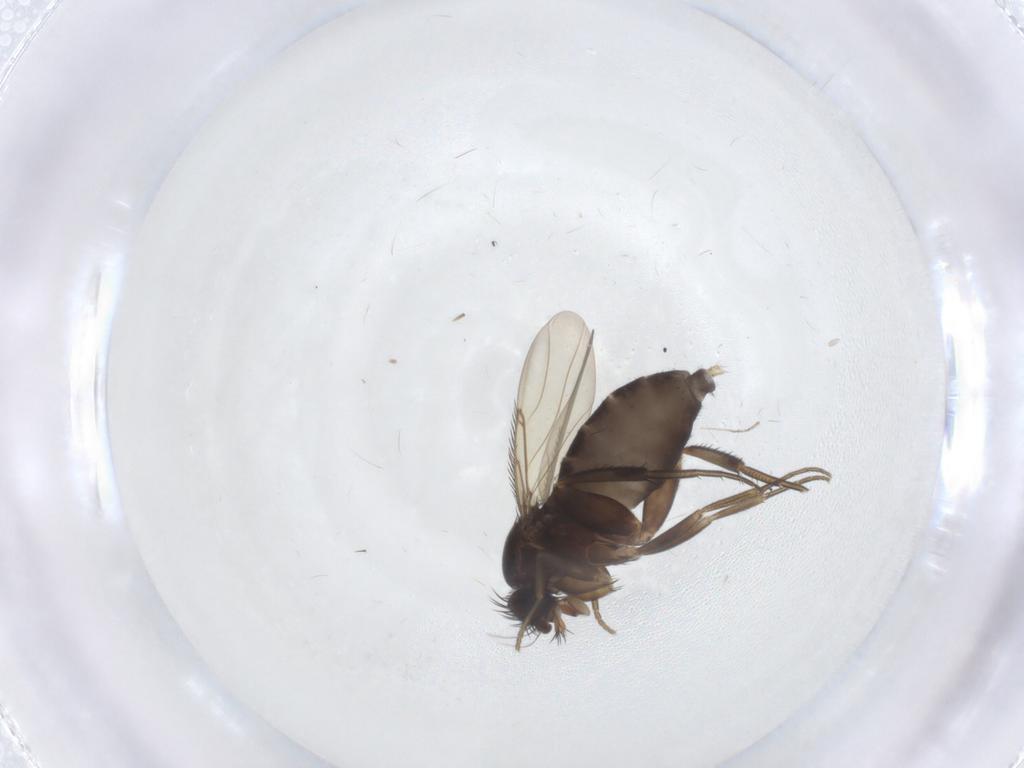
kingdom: Animalia
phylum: Arthropoda
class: Insecta
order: Diptera
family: Phoridae
